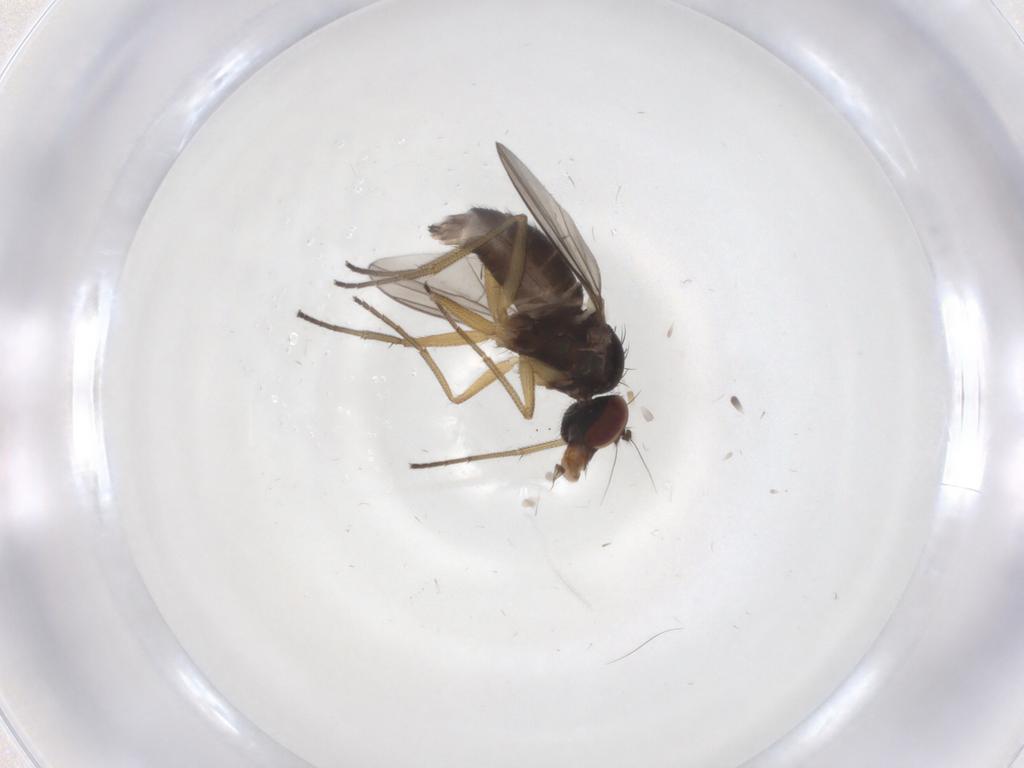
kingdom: Animalia
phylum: Arthropoda
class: Insecta
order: Diptera
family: Dolichopodidae
